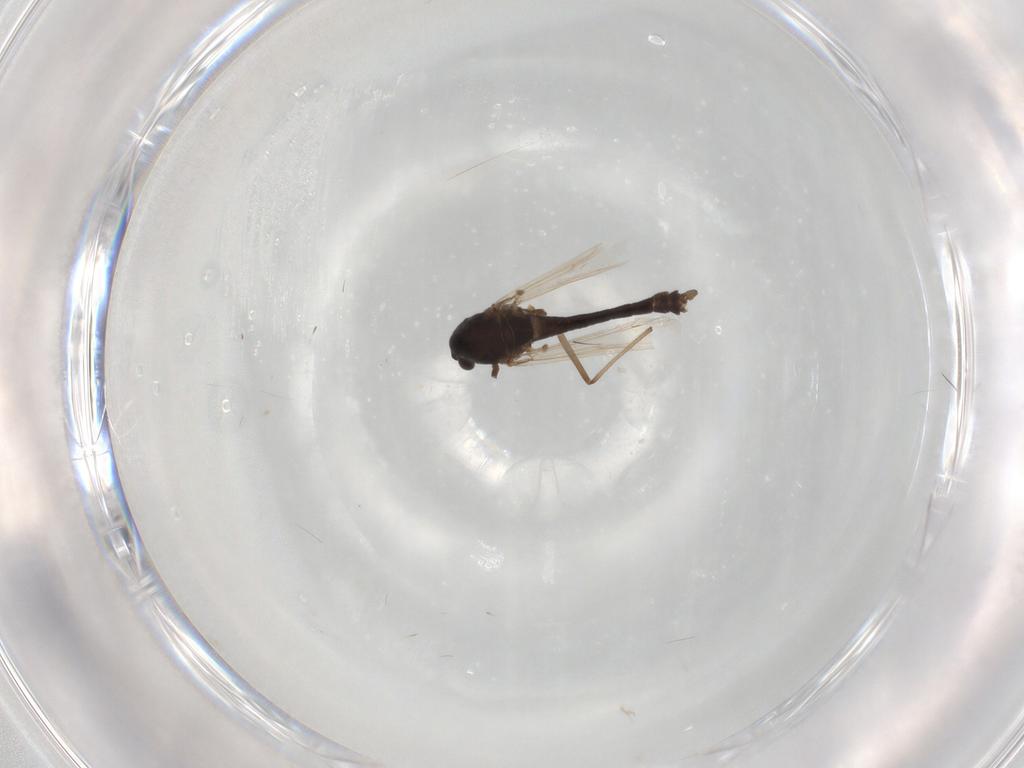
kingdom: Animalia
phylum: Arthropoda
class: Insecta
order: Diptera
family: Chironomidae
